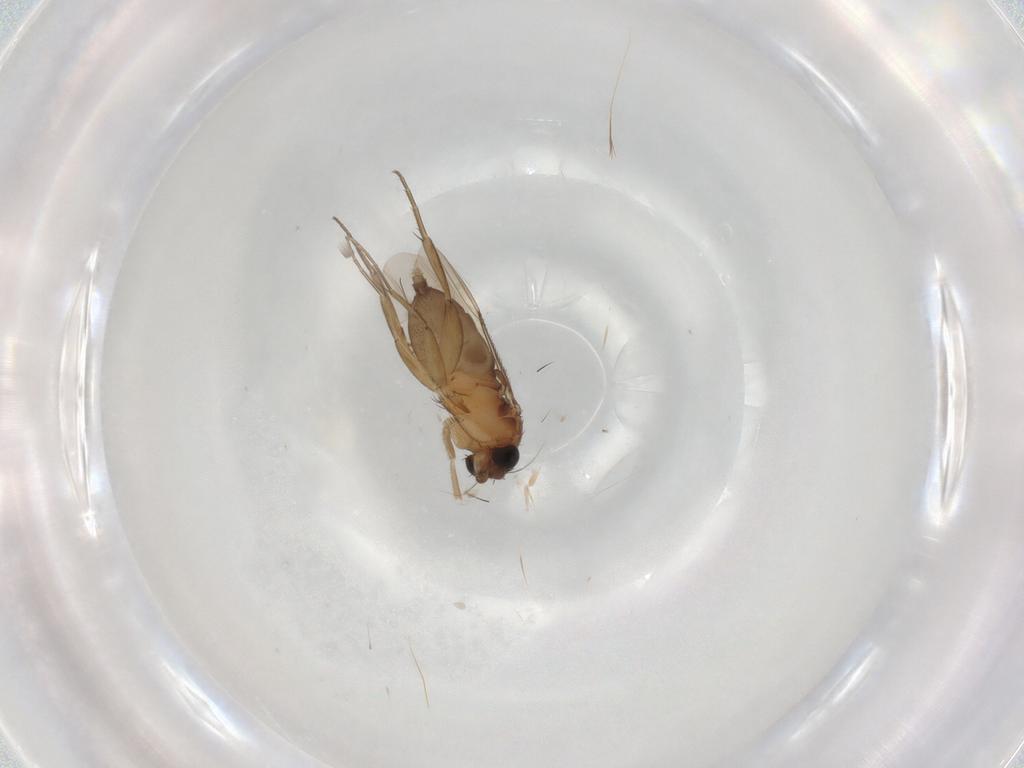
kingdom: Animalia
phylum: Arthropoda
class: Insecta
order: Diptera
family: Phoridae
